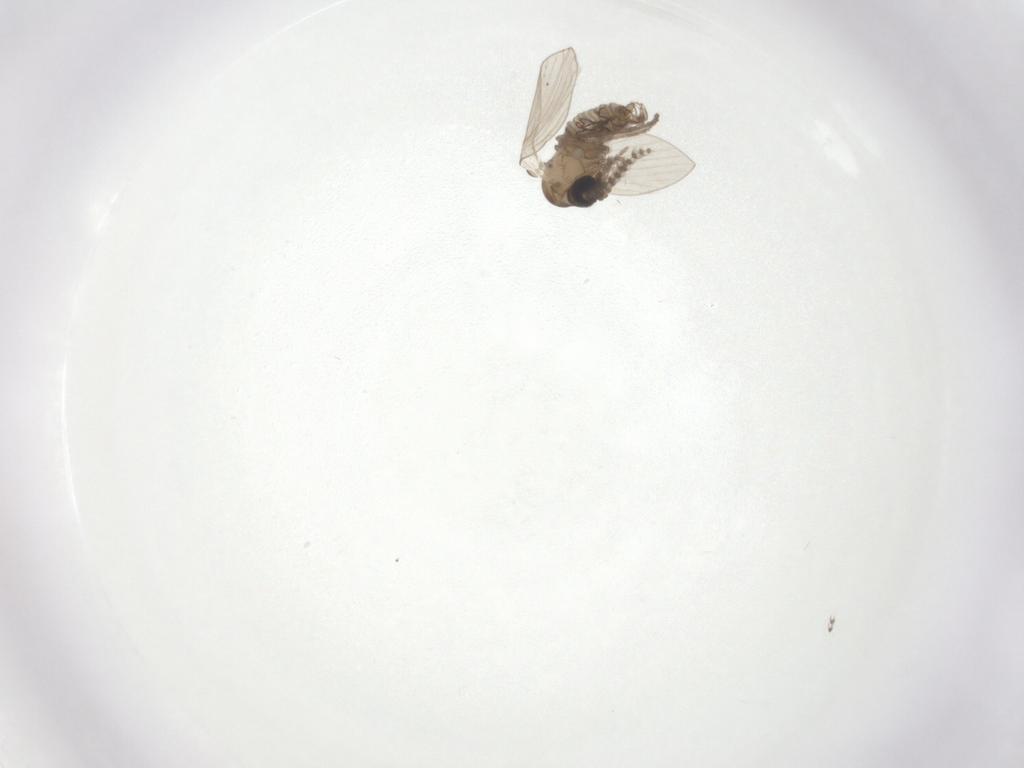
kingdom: Animalia
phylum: Arthropoda
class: Insecta
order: Diptera
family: Psychodidae
